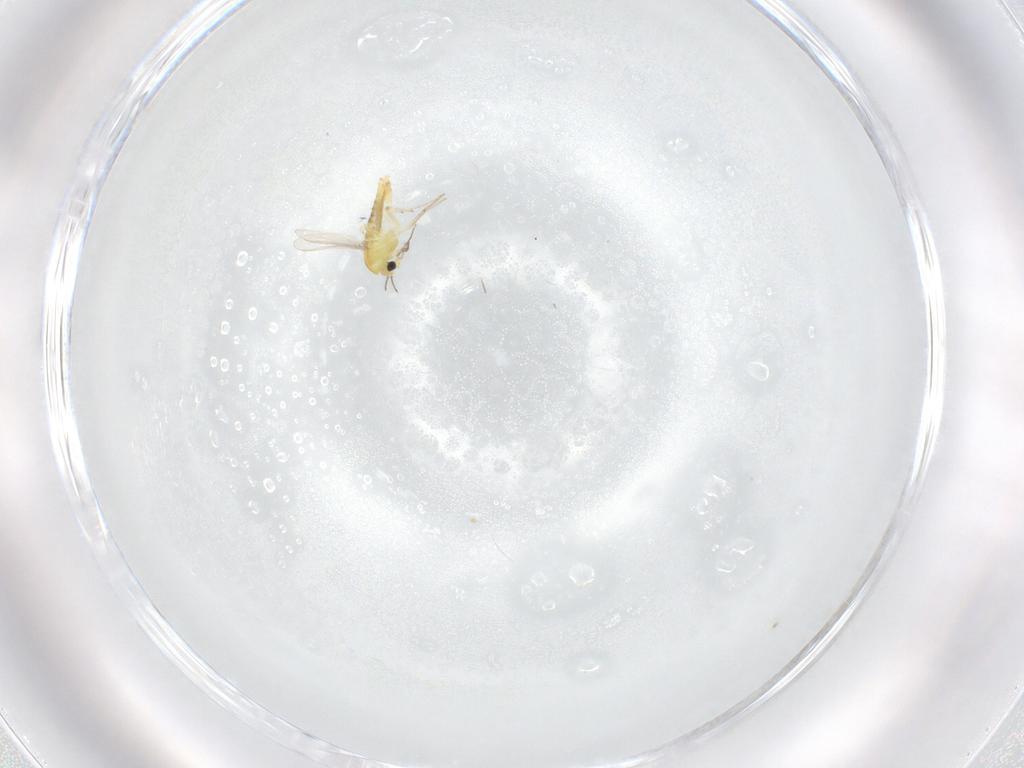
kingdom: Animalia
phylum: Arthropoda
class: Insecta
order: Diptera
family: Chironomidae
